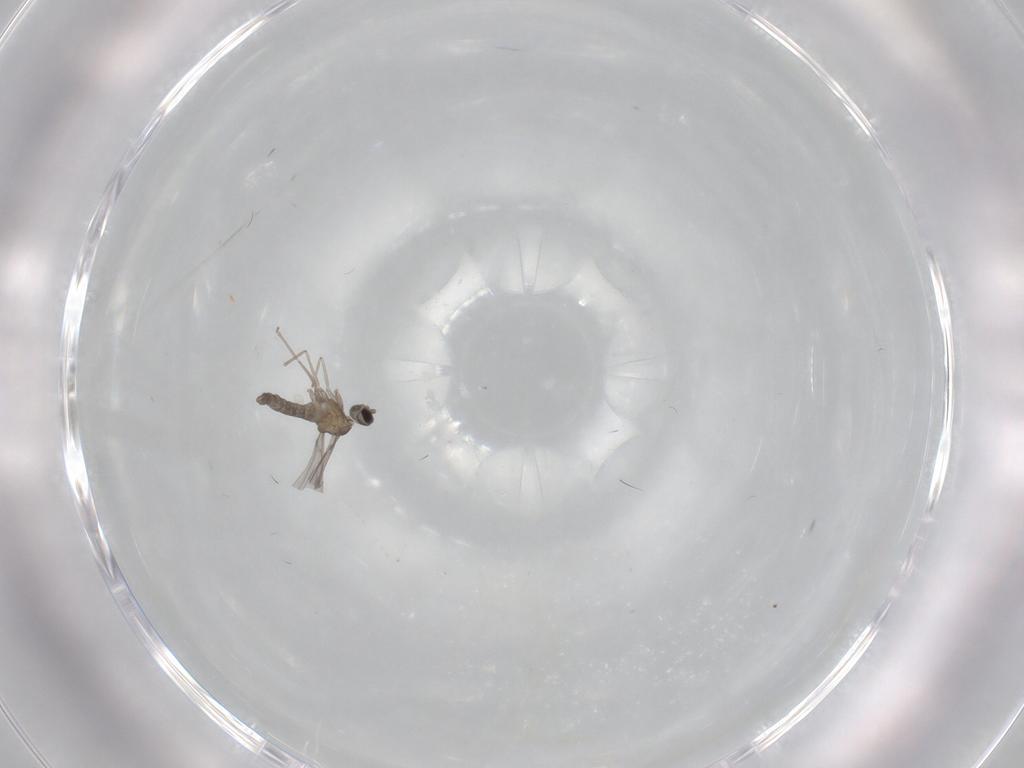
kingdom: Animalia
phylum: Arthropoda
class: Insecta
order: Diptera
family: Cecidomyiidae
